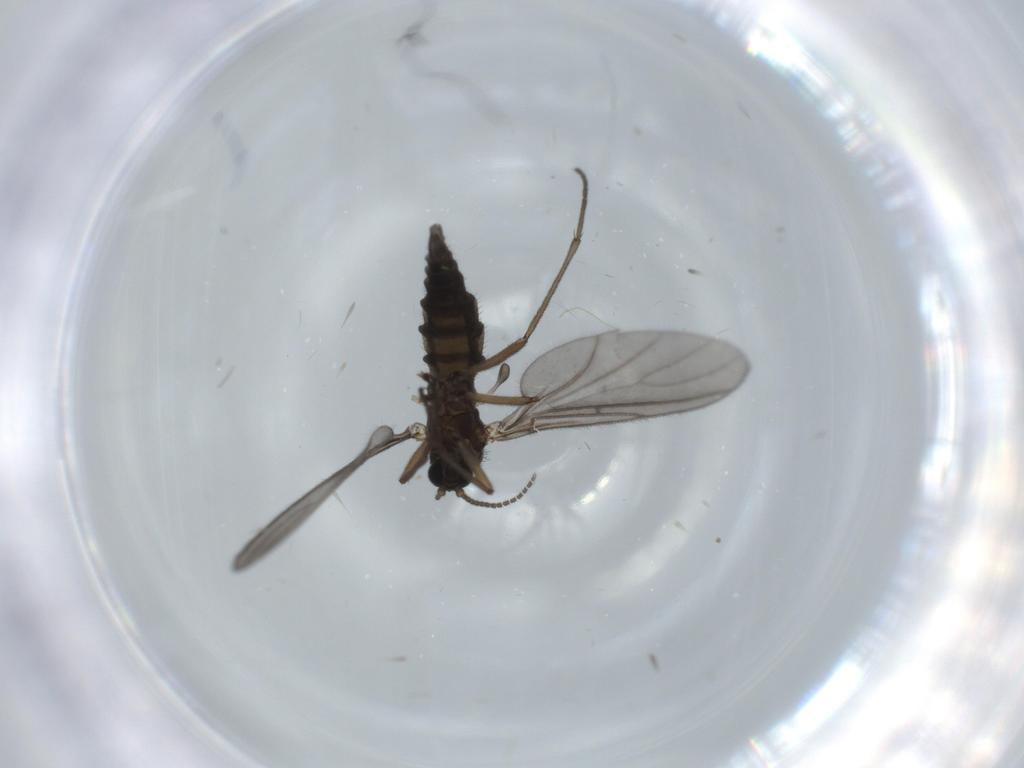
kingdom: Animalia
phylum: Arthropoda
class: Insecta
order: Diptera
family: Sciaridae
